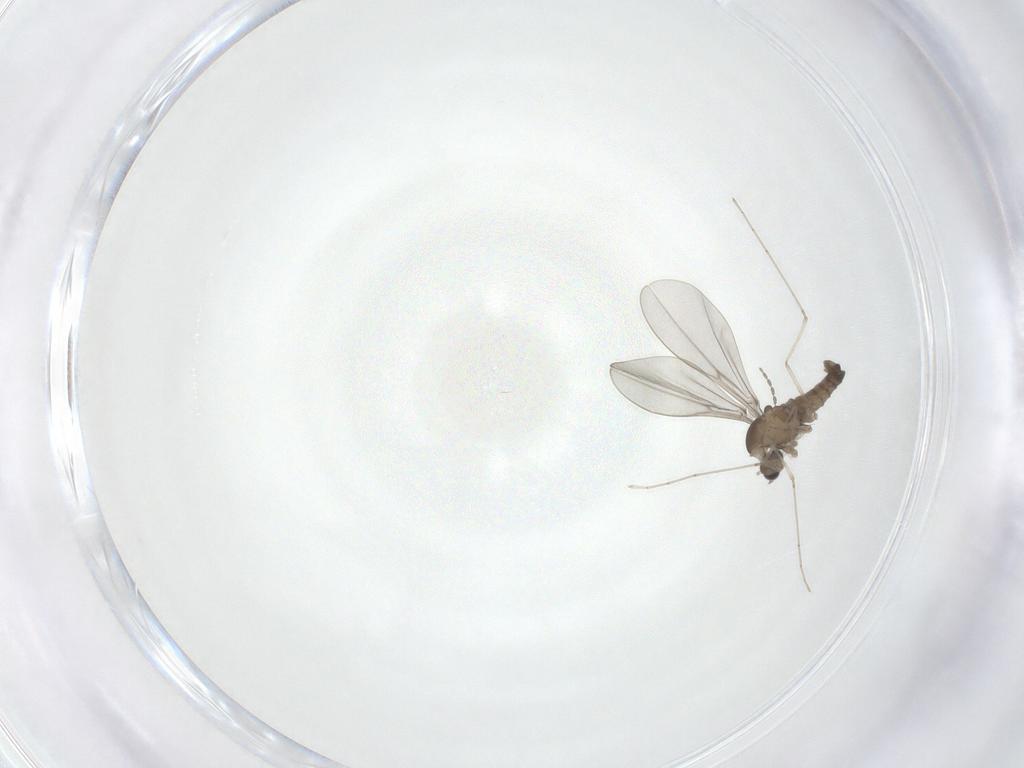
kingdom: Animalia
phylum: Arthropoda
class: Insecta
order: Diptera
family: Cecidomyiidae
